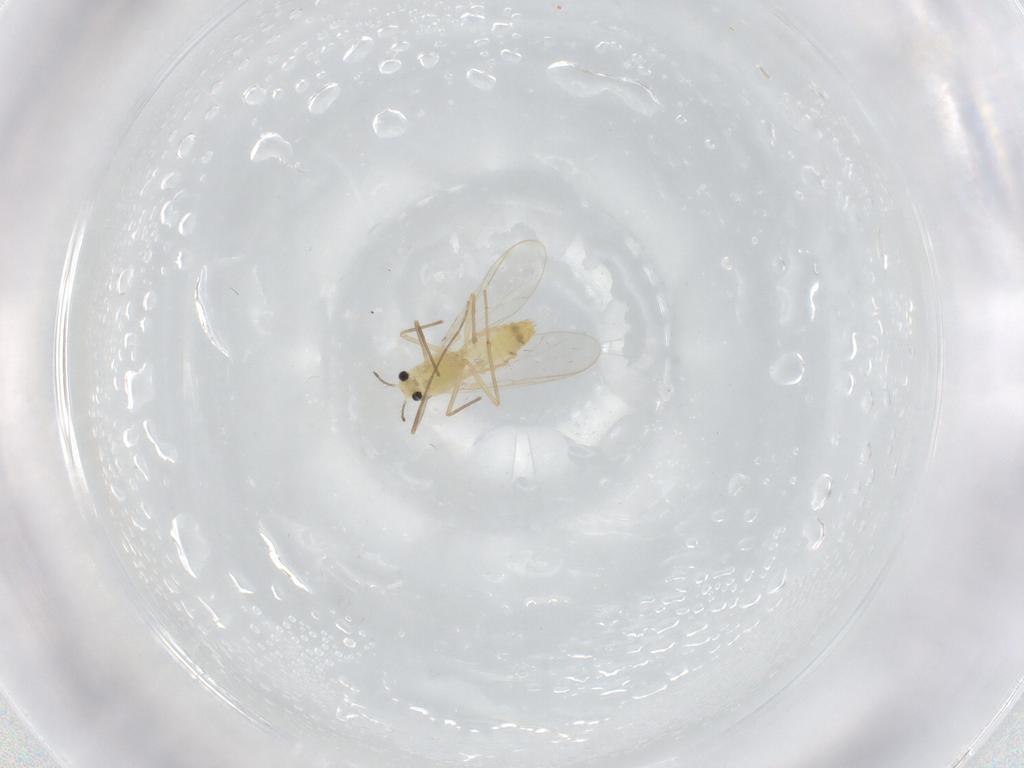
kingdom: Animalia
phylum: Arthropoda
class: Insecta
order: Diptera
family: Chironomidae
